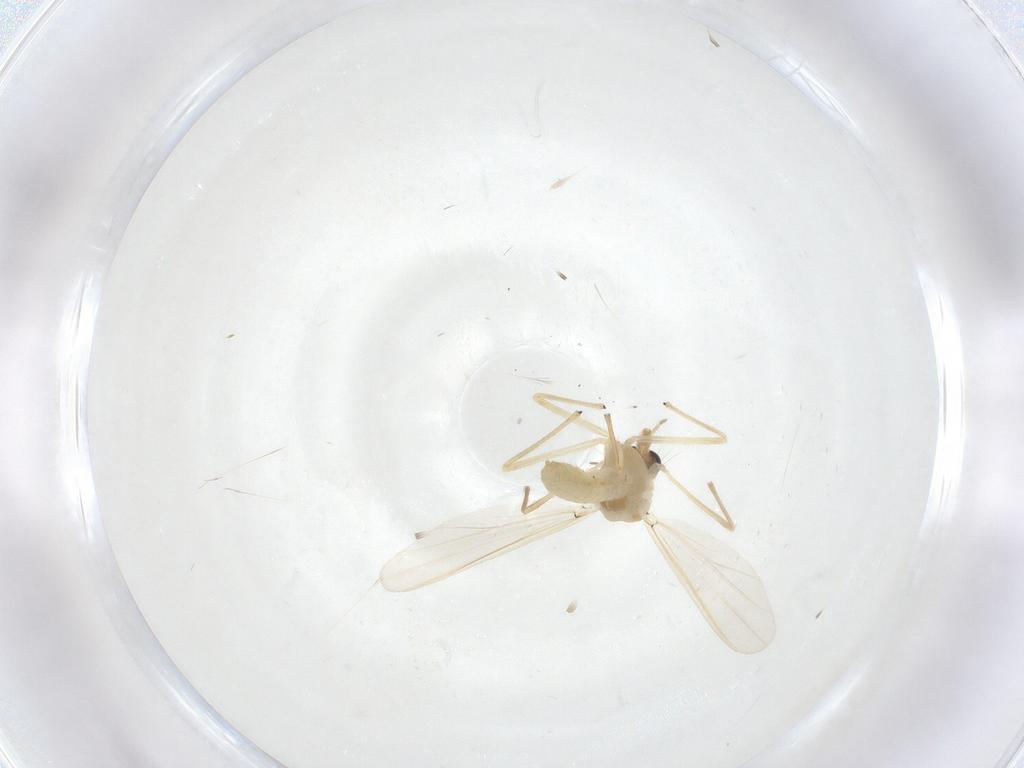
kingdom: Animalia
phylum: Arthropoda
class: Insecta
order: Diptera
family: Chironomidae
